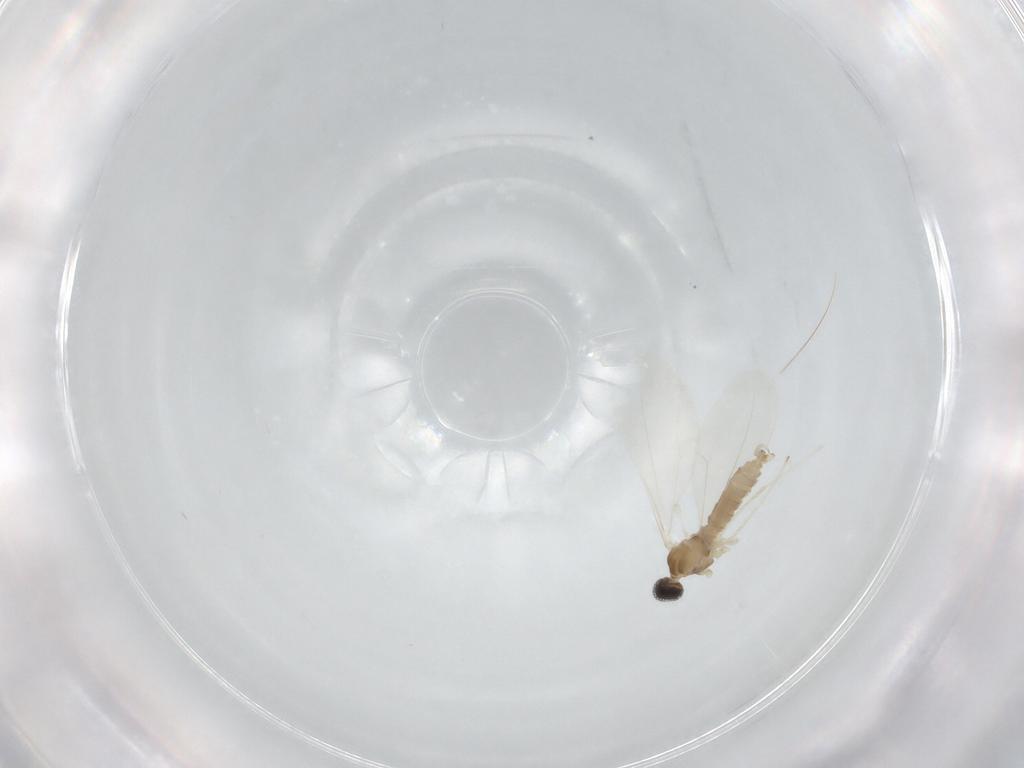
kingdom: Animalia
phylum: Arthropoda
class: Insecta
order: Diptera
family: Cecidomyiidae
